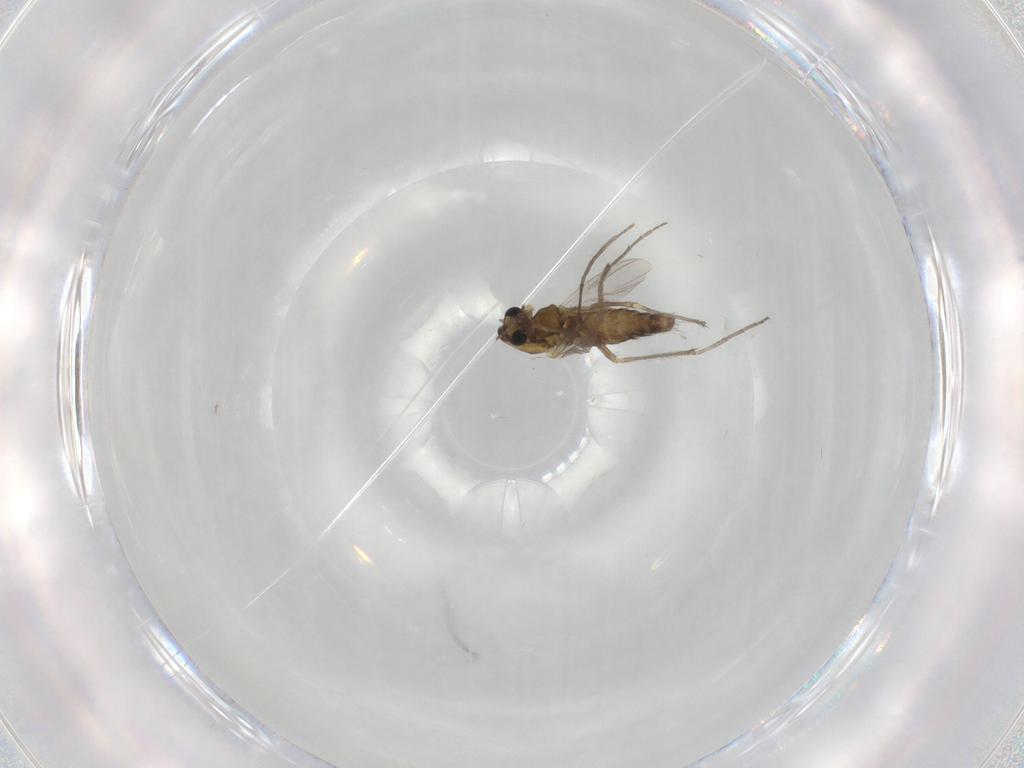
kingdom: Animalia
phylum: Arthropoda
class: Insecta
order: Diptera
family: Chironomidae
